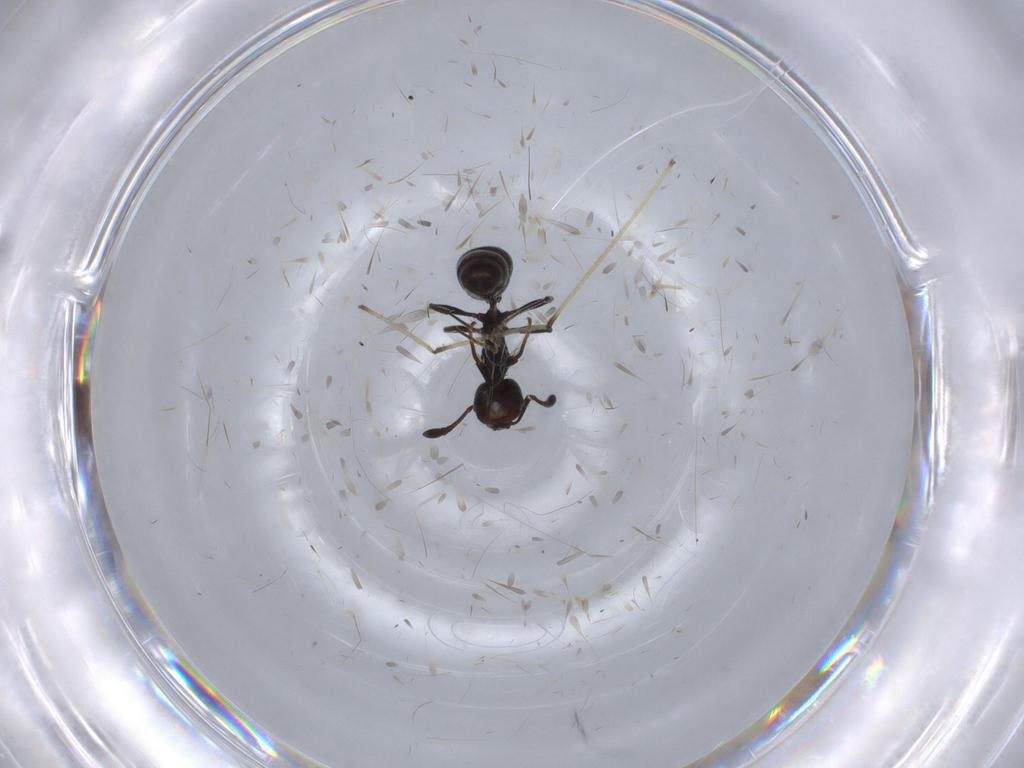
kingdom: Animalia
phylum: Arthropoda
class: Insecta
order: Hymenoptera
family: Formicidae
